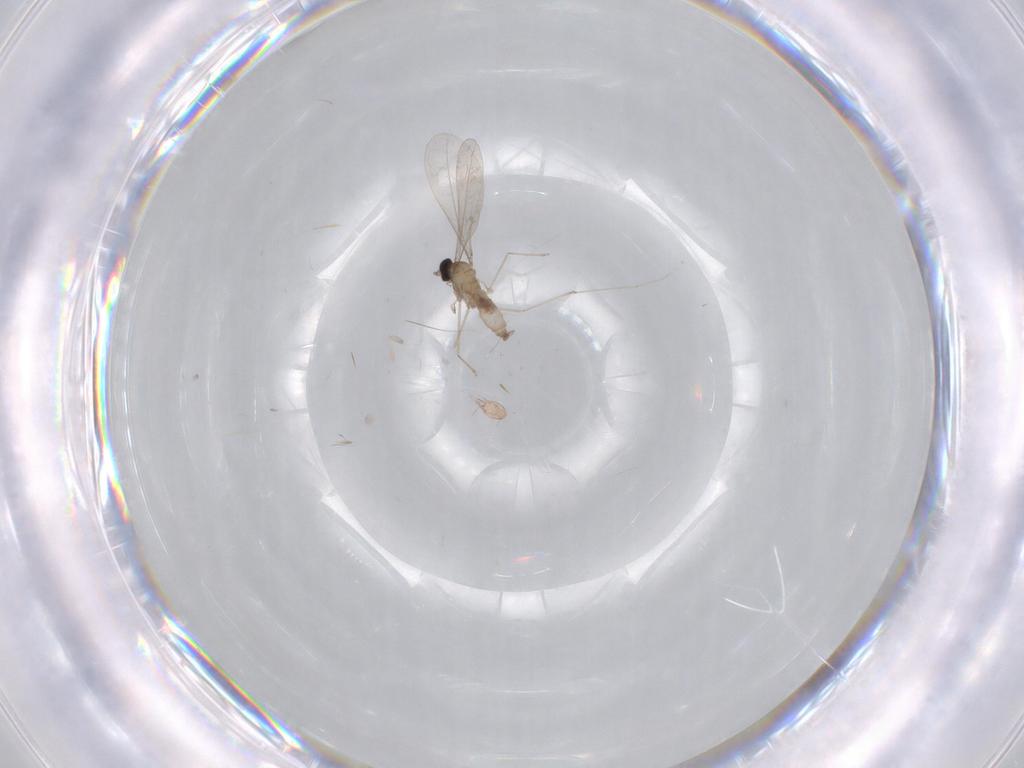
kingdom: Animalia
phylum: Arthropoda
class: Insecta
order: Diptera
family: Cecidomyiidae
